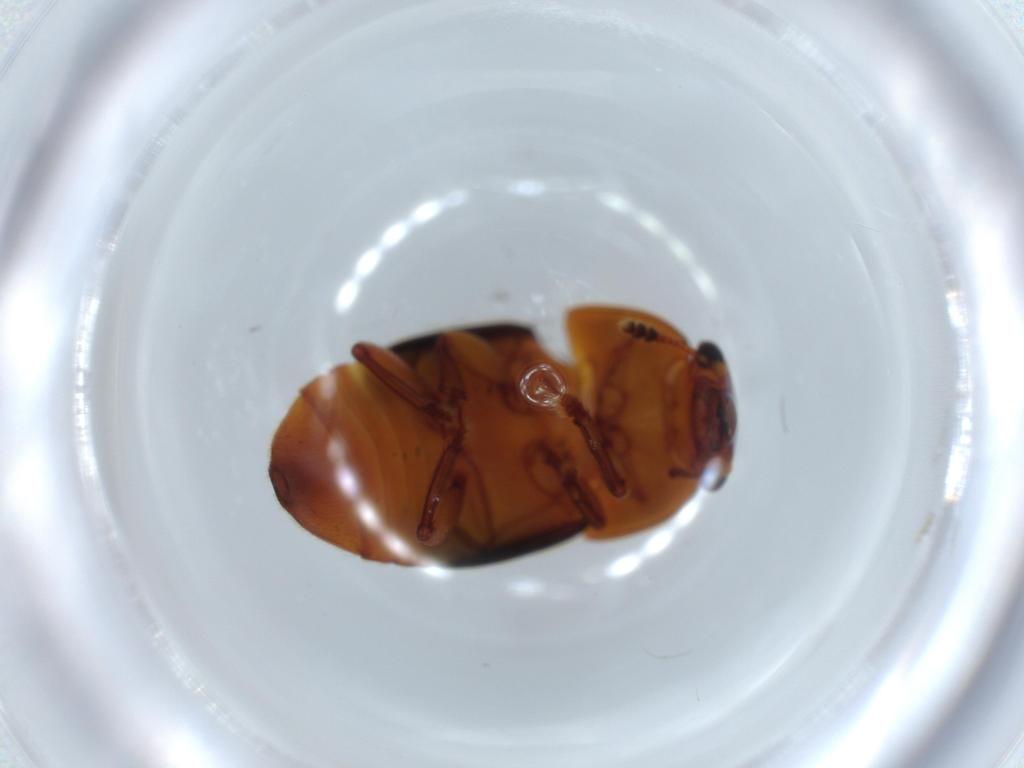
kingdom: Animalia
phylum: Arthropoda
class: Insecta
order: Coleoptera
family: Nitidulidae
